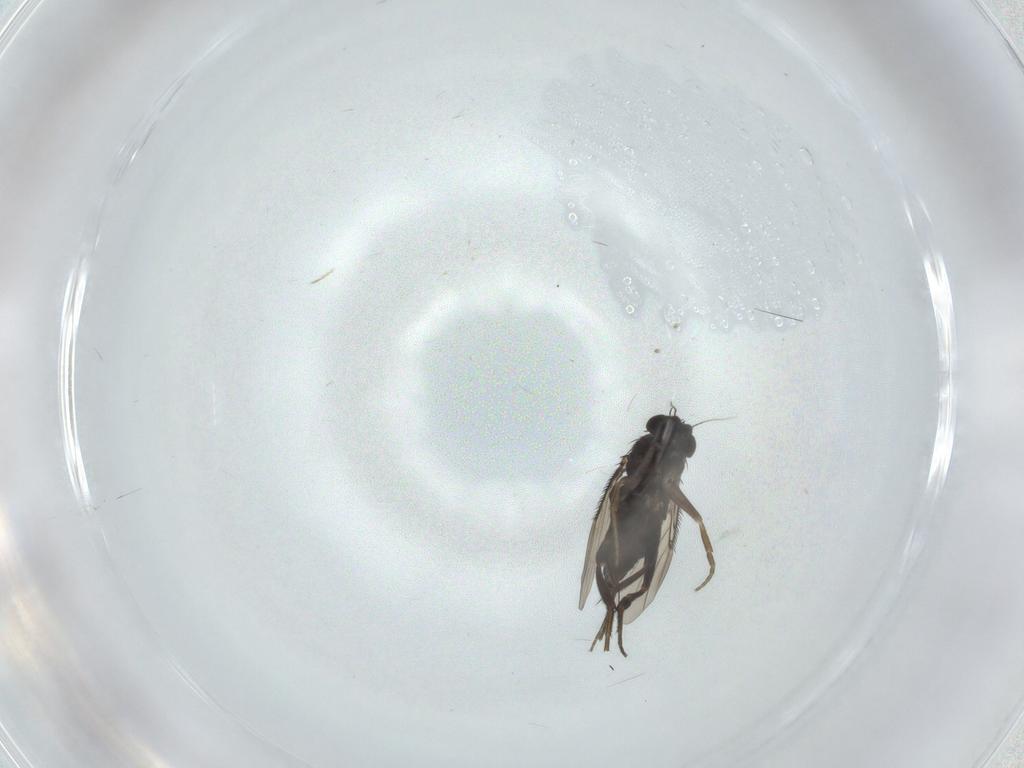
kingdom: Animalia
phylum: Arthropoda
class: Insecta
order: Diptera
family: Chironomidae
